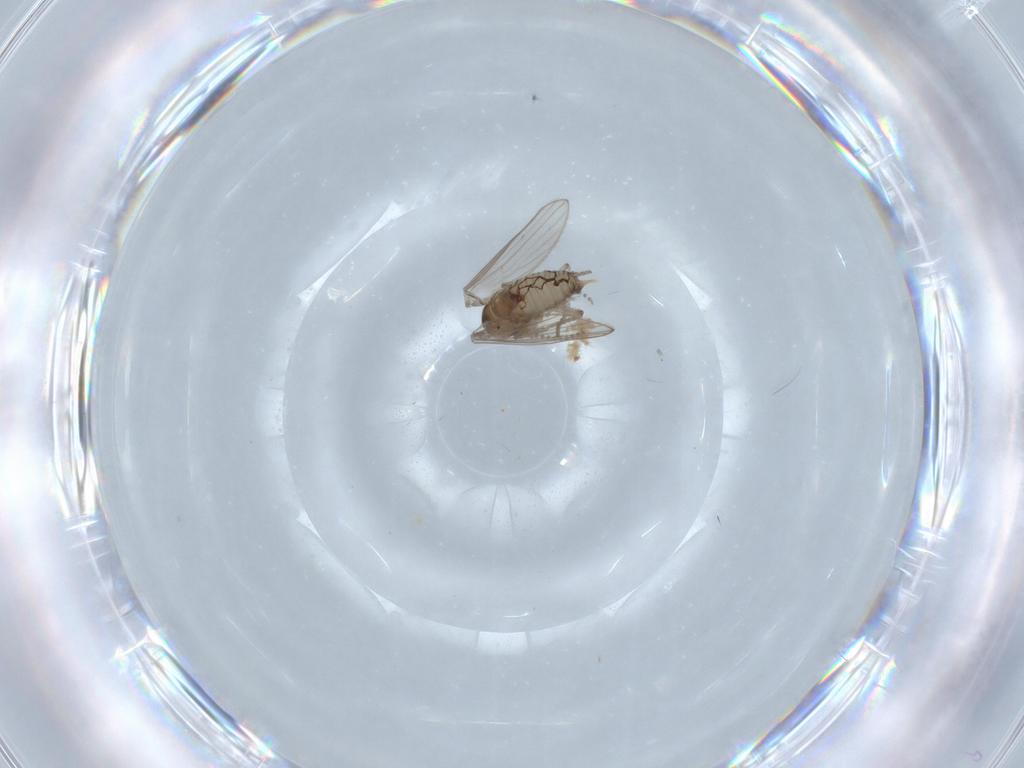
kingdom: Animalia
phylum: Arthropoda
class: Insecta
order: Diptera
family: Psychodidae
